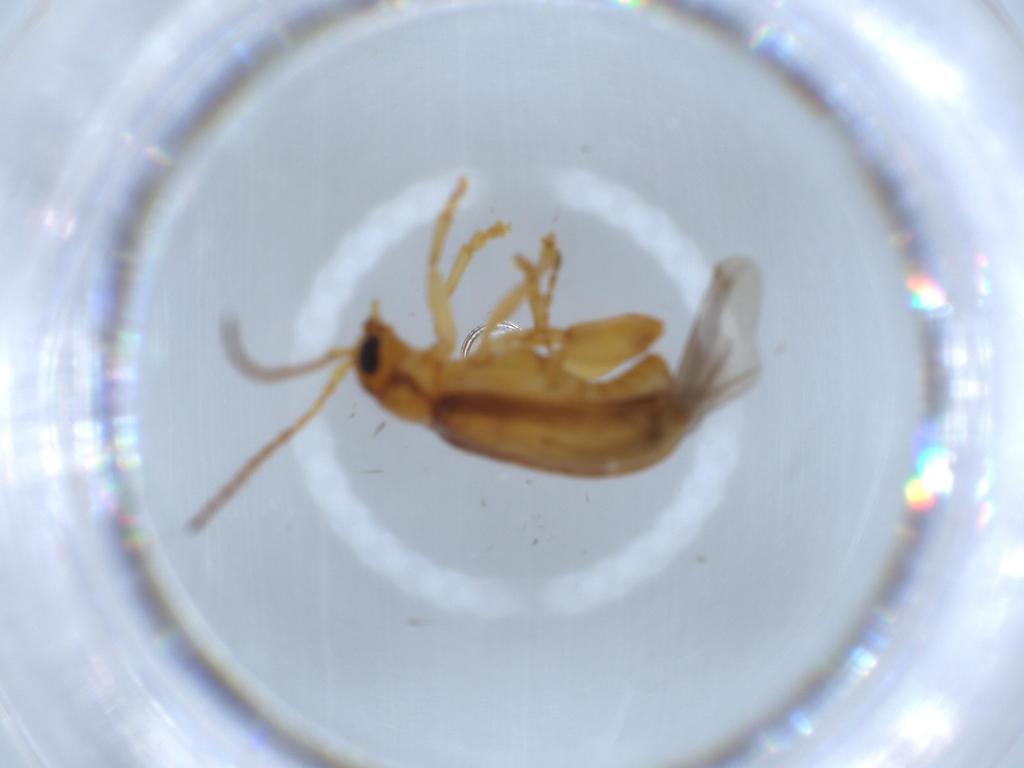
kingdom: Animalia
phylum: Arthropoda
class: Insecta
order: Coleoptera
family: Chrysomelidae
